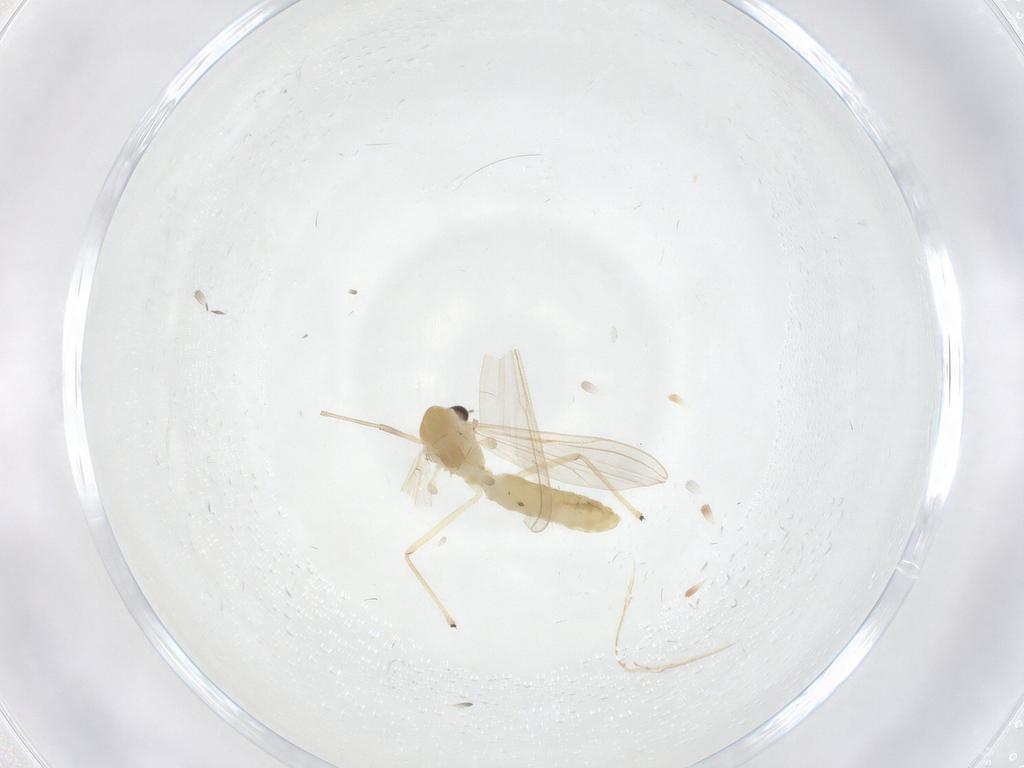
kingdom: Animalia
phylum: Arthropoda
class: Insecta
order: Diptera
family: Chironomidae
